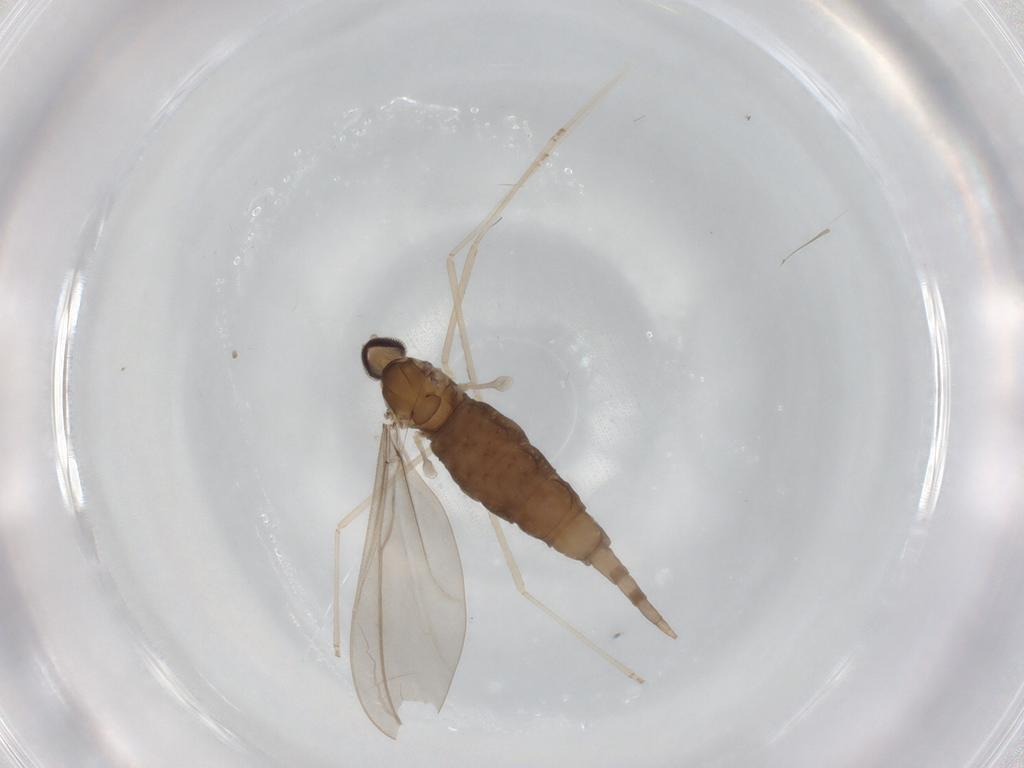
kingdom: Animalia
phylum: Arthropoda
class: Insecta
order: Diptera
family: Cecidomyiidae
